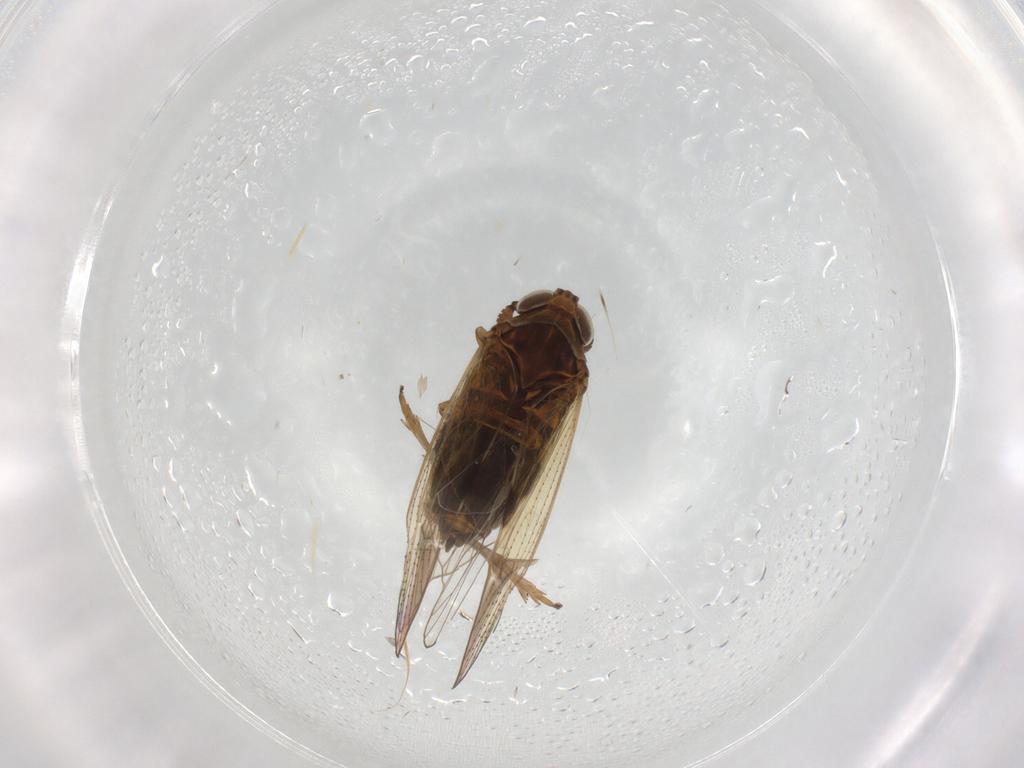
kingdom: Animalia
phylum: Arthropoda
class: Insecta
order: Hemiptera
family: Delphacidae
